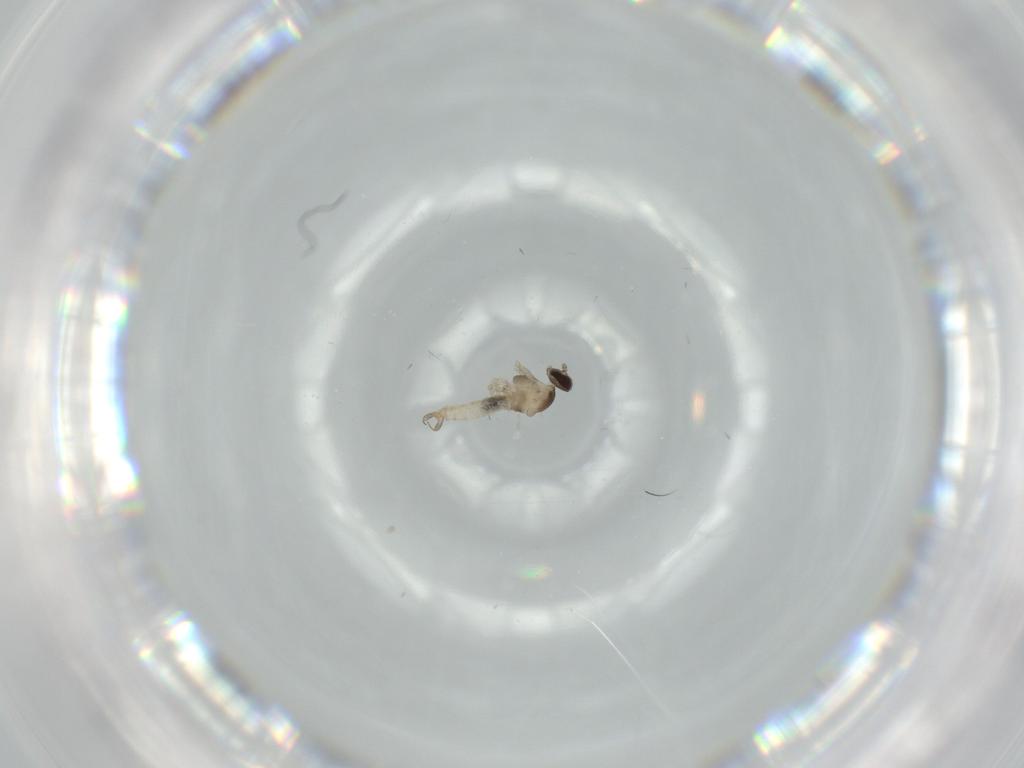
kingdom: Animalia
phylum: Arthropoda
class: Insecta
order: Diptera
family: Cecidomyiidae
